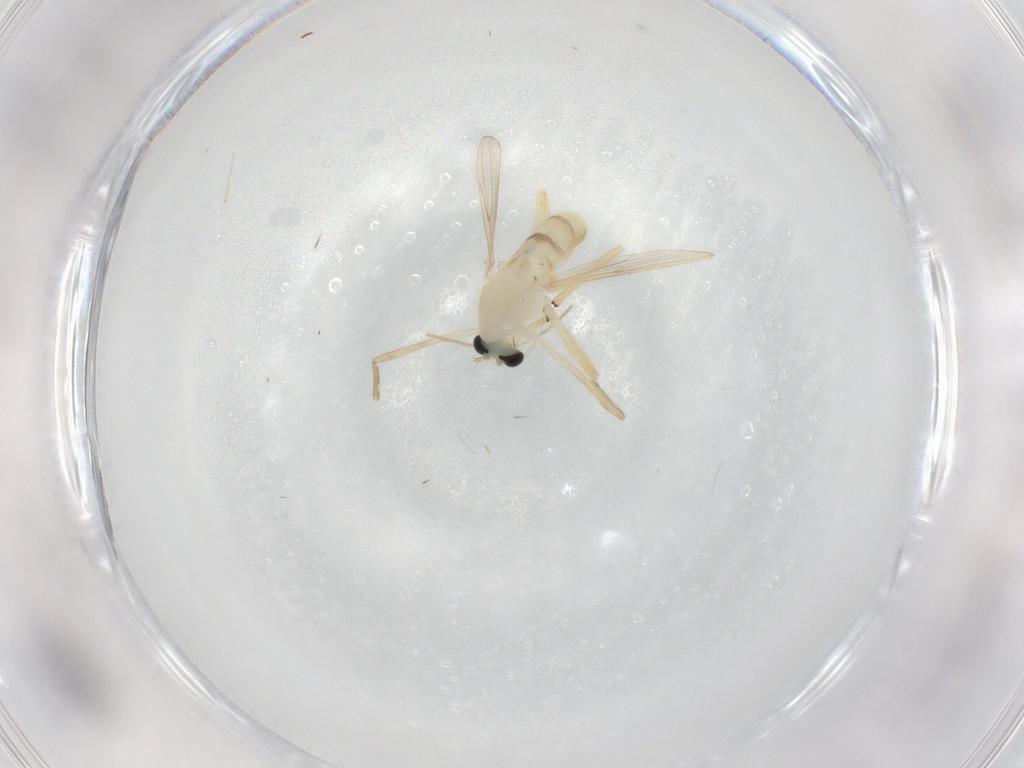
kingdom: Animalia
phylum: Arthropoda
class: Insecta
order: Diptera
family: Chironomidae
